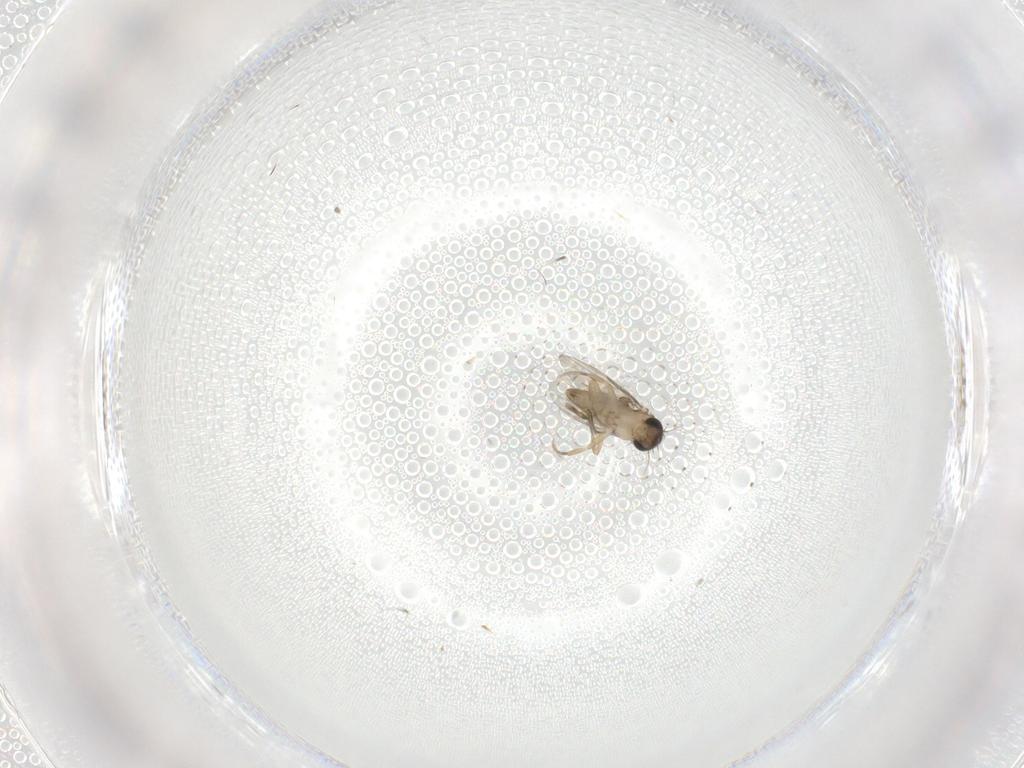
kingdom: Animalia
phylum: Arthropoda
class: Insecta
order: Diptera
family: Phoridae
